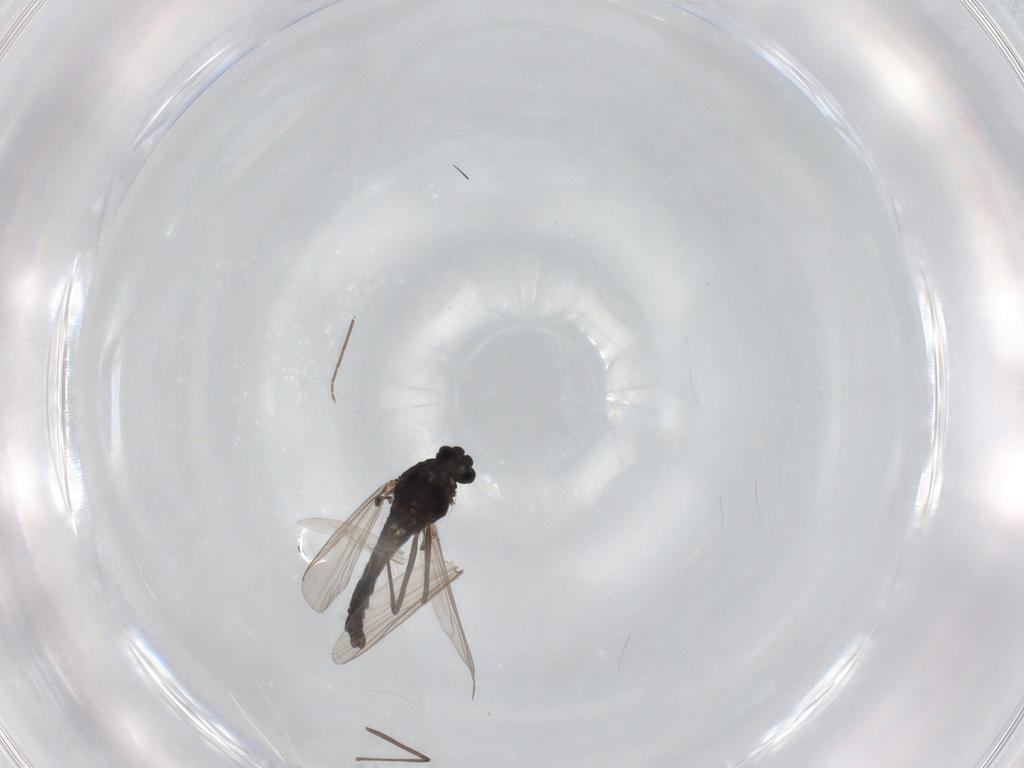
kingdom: Animalia
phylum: Arthropoda
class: Insecta
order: Diptera
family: Chironomidae
